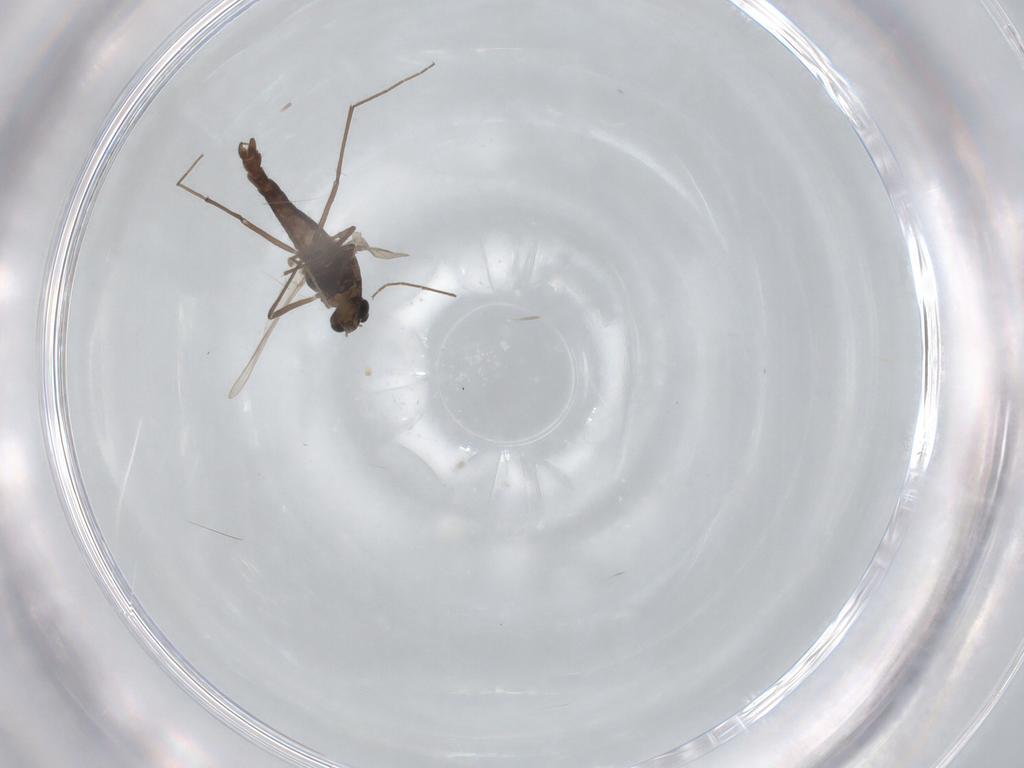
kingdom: Animalia
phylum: Arthropoda
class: Insecta
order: Diptera
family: Chironomidae
